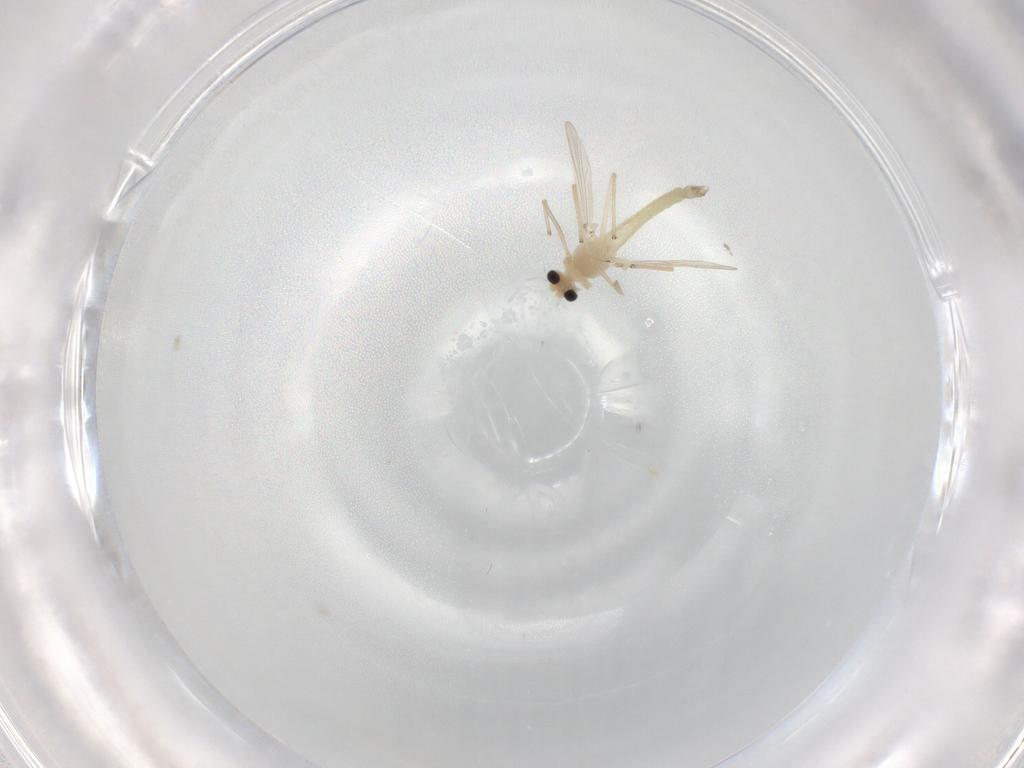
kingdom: Animalia
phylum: Arthropoda
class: Insecta
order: Diptera
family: Chironomidae
